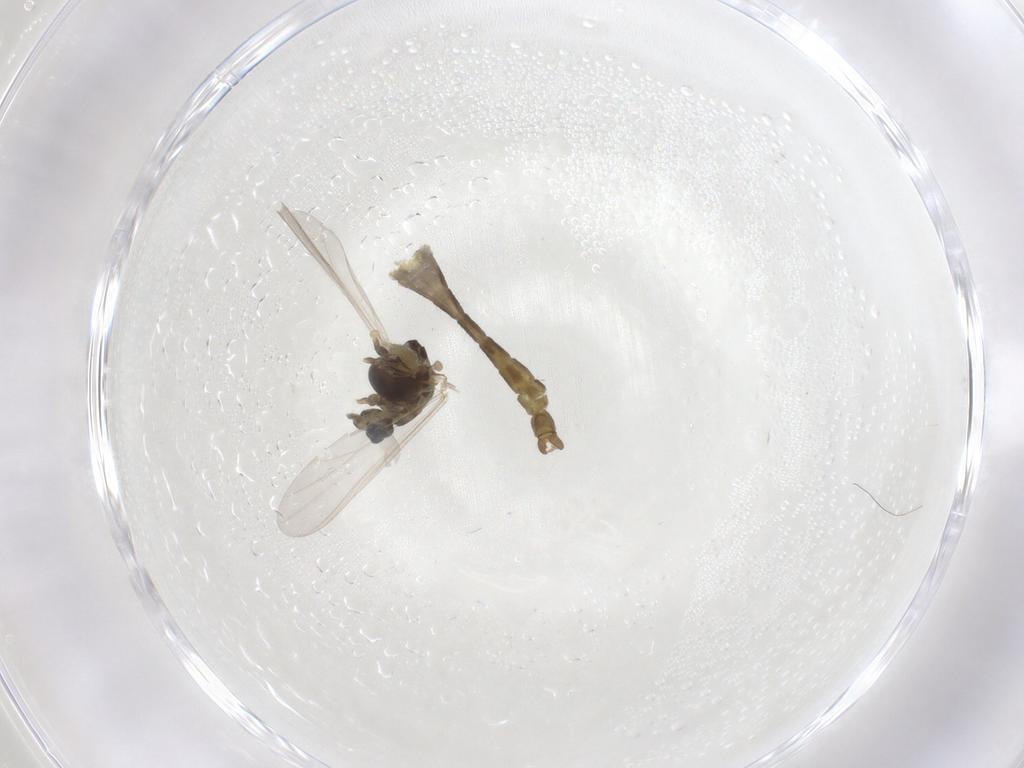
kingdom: Animalia
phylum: Arthropoda
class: Insecta
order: Diptera
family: Chironomidae
